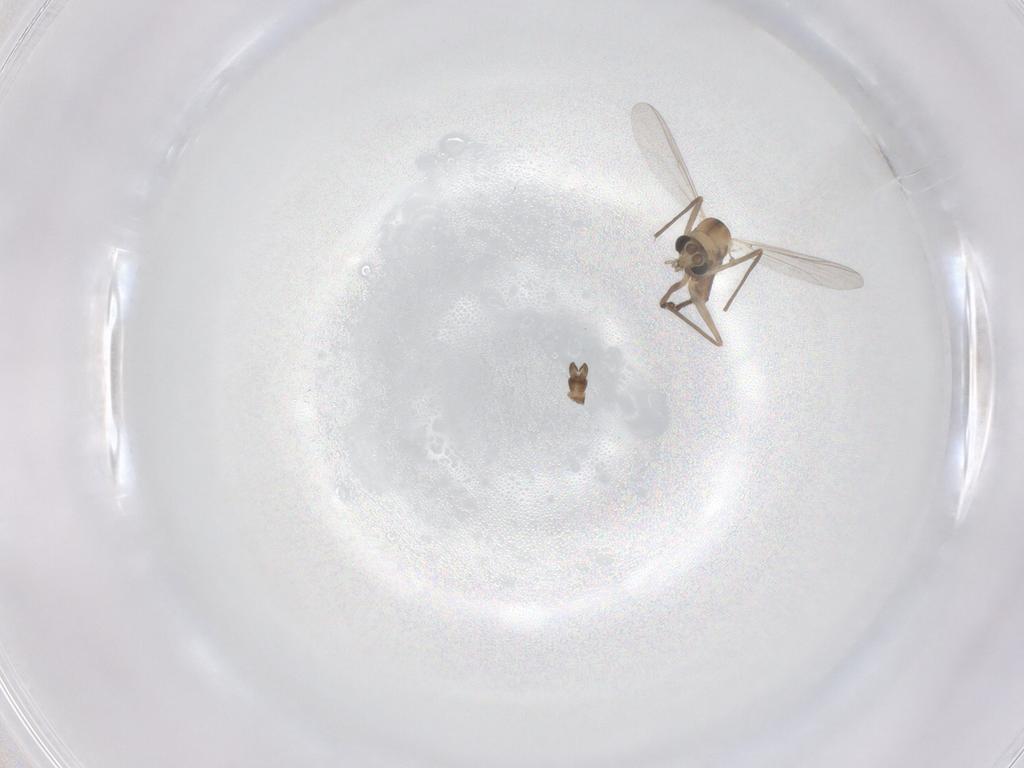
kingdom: Animalia
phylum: Arthropoda
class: Insecta
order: Diptera
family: Chironomidae
